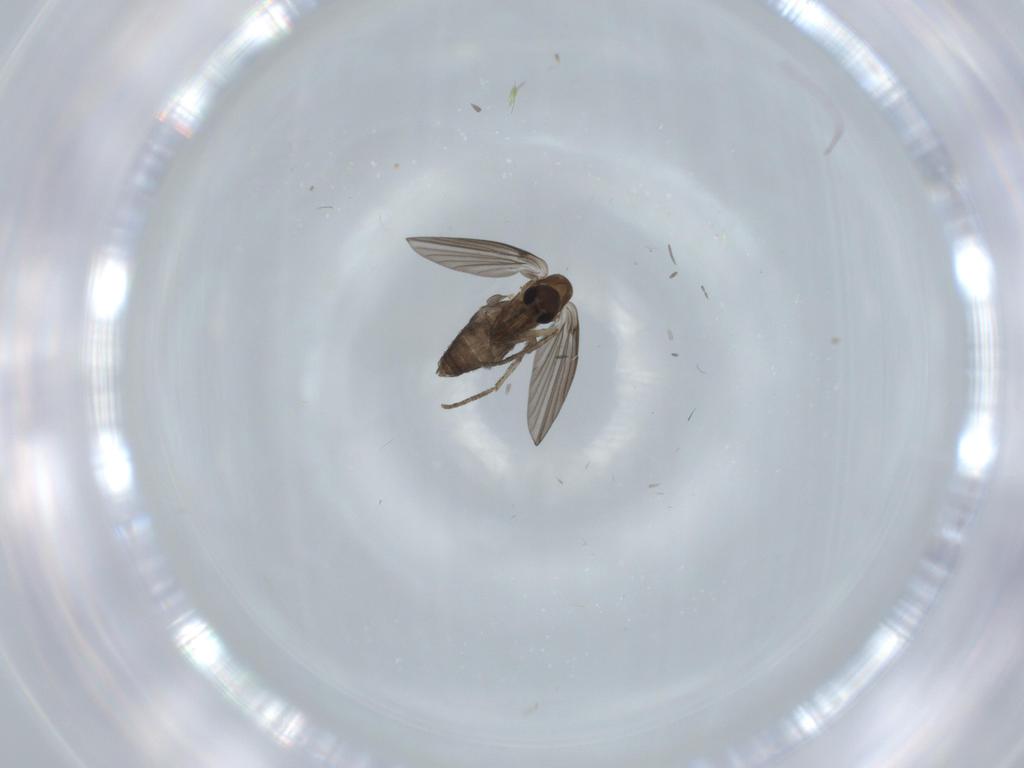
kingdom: Animalia
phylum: Arthropoda
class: Insecta
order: Diptera
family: Psychodidae
